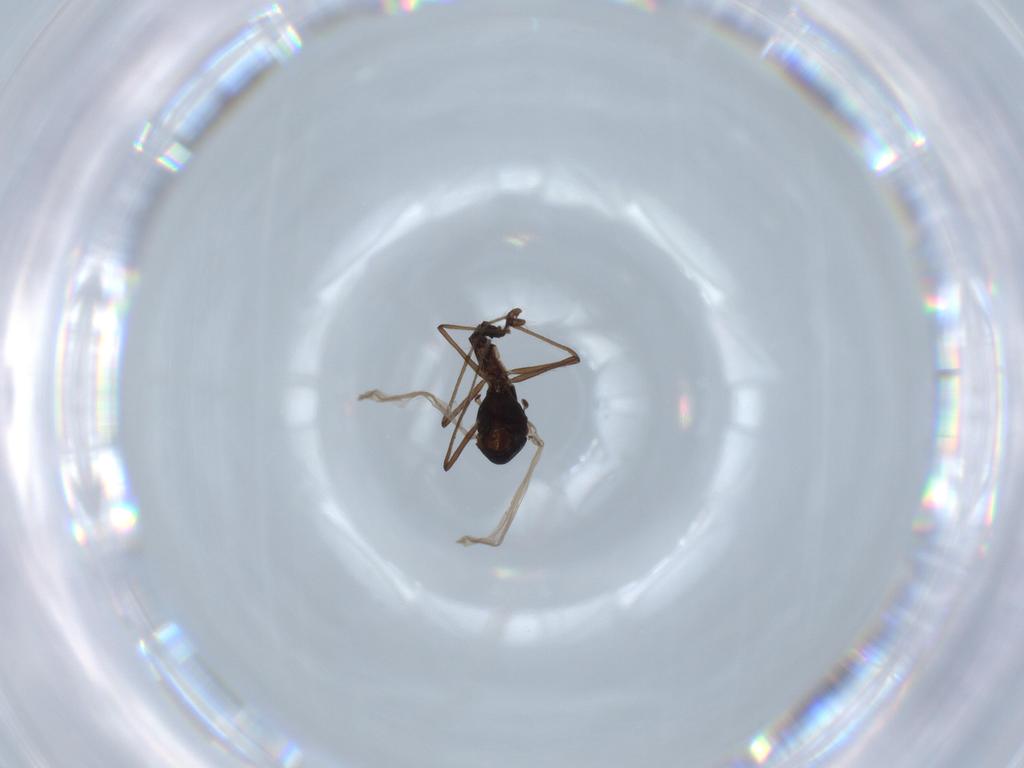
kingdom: Animalia
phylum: Arthropoda
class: Insecta
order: Diptera
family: Chironomidae
